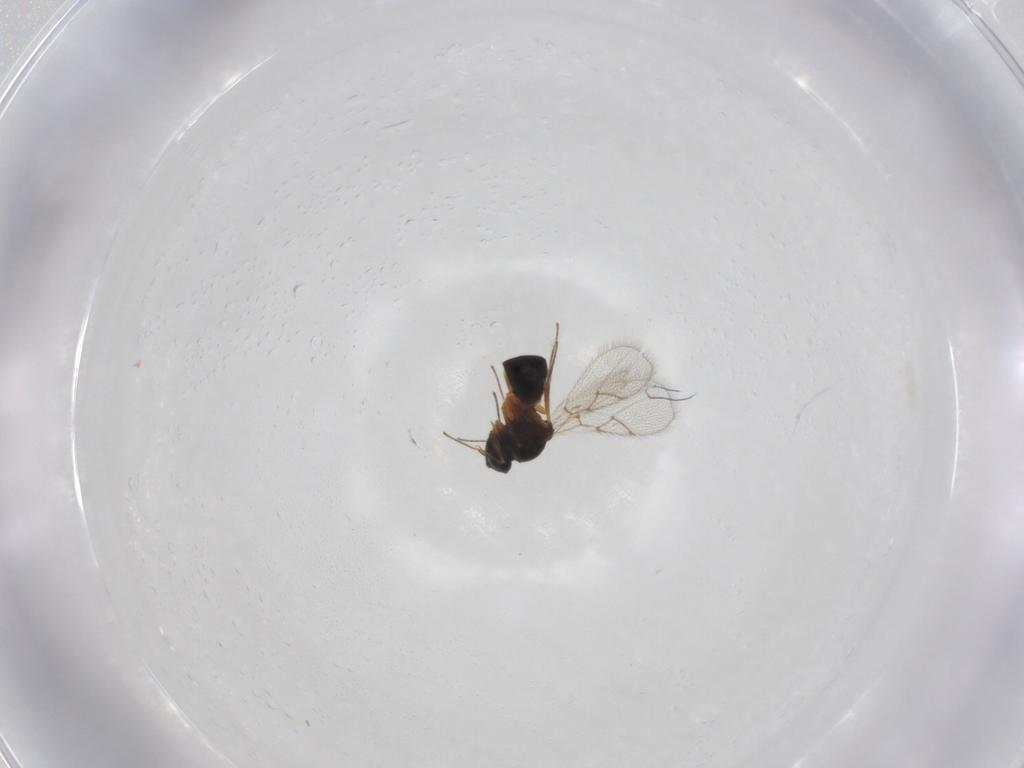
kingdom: Animalia
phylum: Arthropoda
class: Insecta
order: Hymenoptera
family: Figitidae
